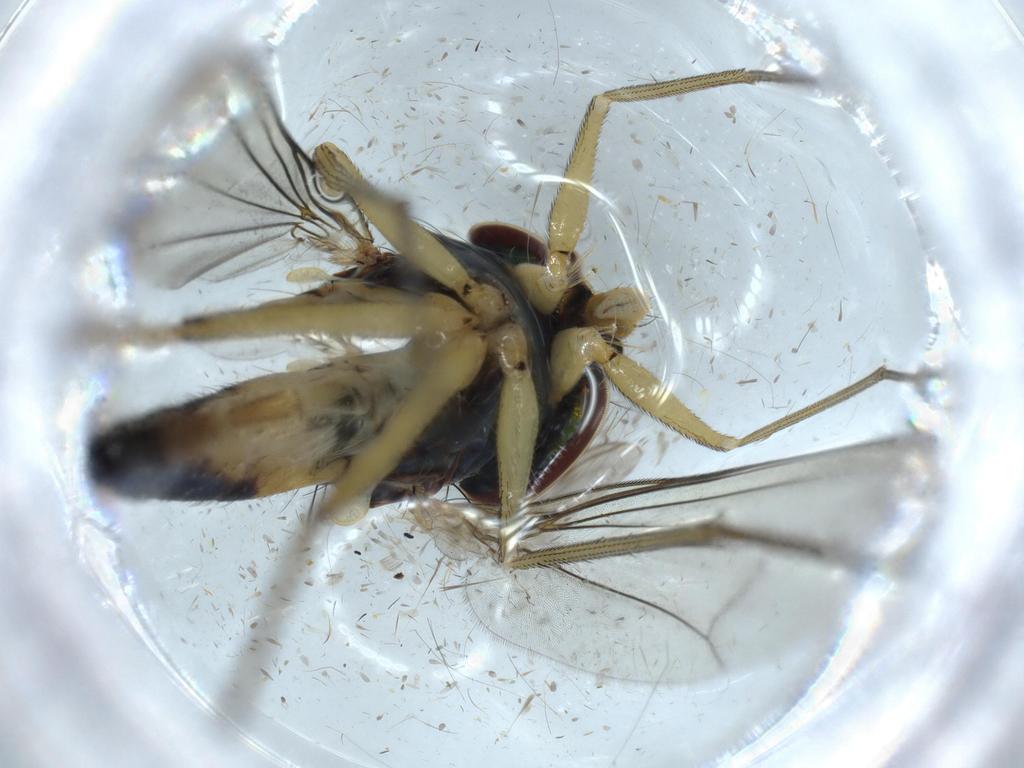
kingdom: Animalia
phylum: Arthropoda
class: Insecta
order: Diptera
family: Dolichopodidae
